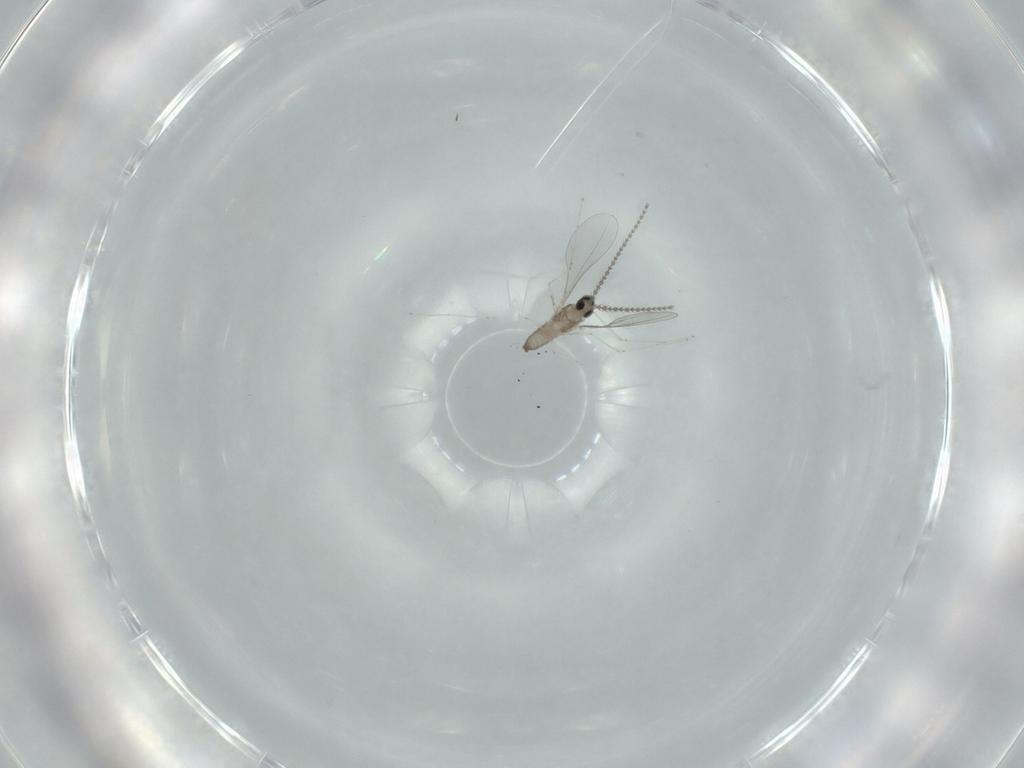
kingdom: Animalia
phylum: Arthropoda
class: Insecta
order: Diptera
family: Cecidomyiidae
